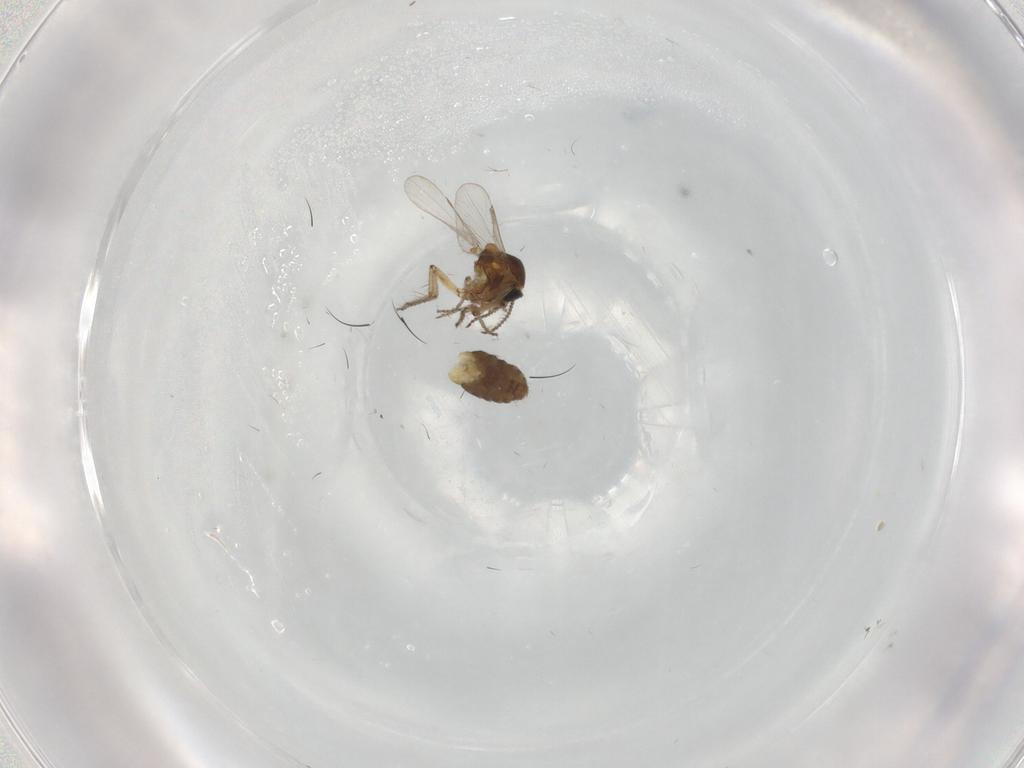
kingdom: Animalia
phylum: Arthropoda
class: Insecta
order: Diptera
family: Ceratopogonidae
